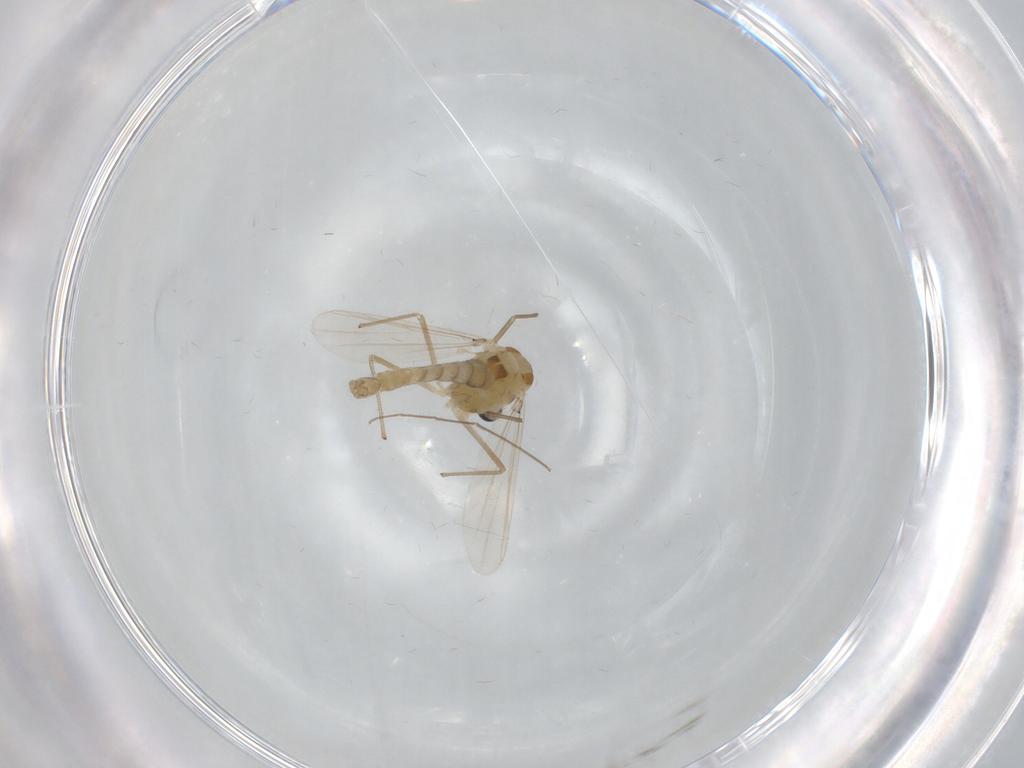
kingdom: Animalia
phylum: Arthropoda
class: Insecta
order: Diptera
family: Chironomidae
